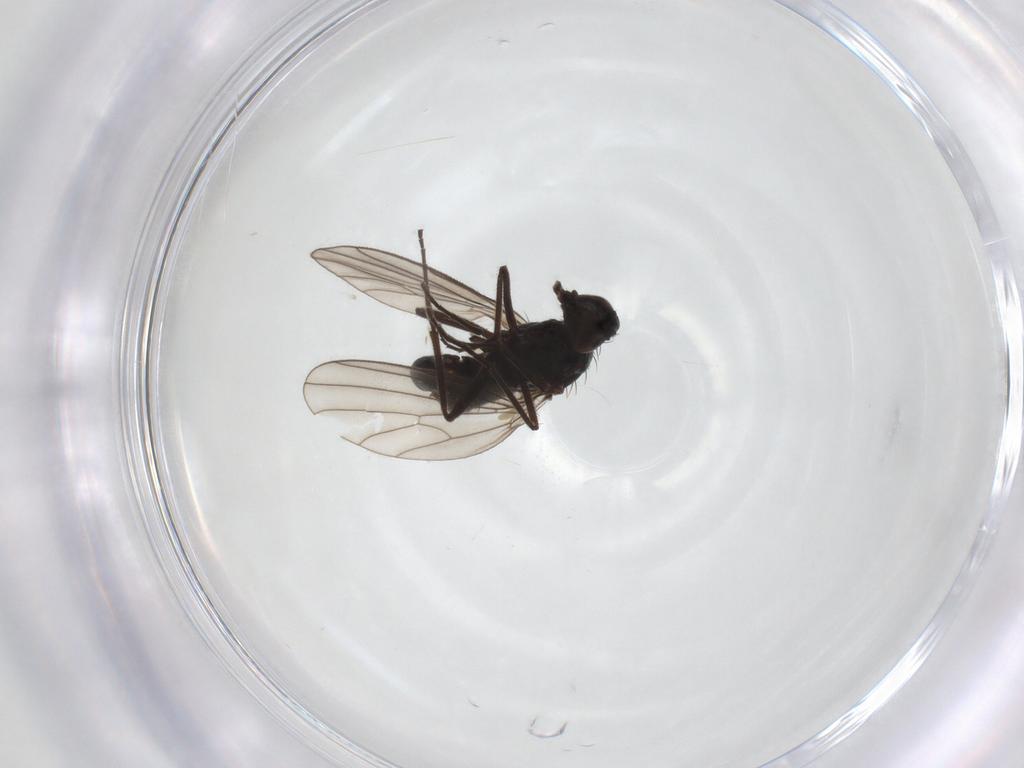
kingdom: Animalia
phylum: Arthropoda
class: Insecta
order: Diptera
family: Dolichopodidae
